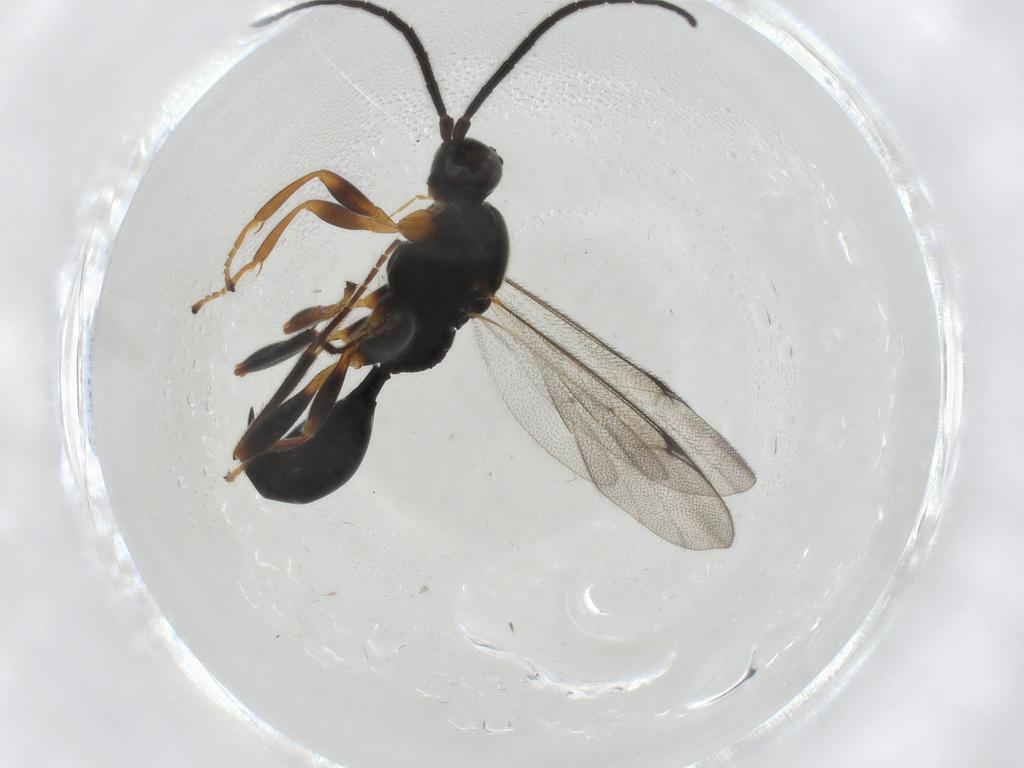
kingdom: Animalia
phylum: Arthropoda
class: Insecta
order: Hymenoptera
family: Proctotrupidae
